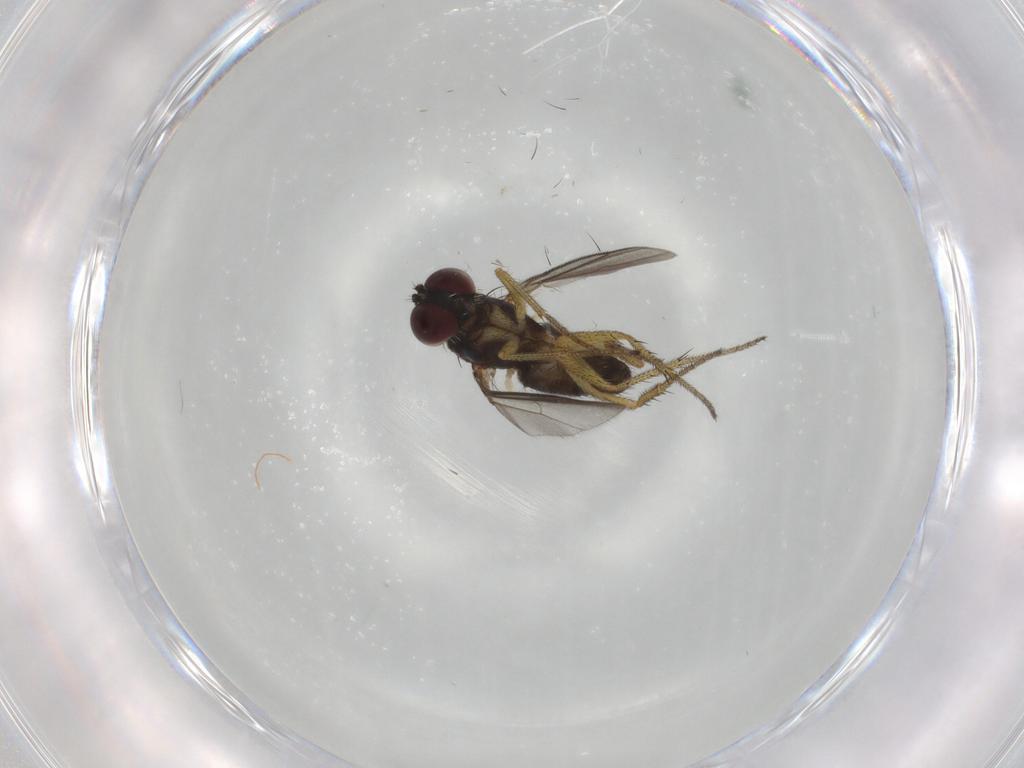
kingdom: Animalia
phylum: Arthropoda
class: Insecta
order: Diptera
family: Dolichopodidae
